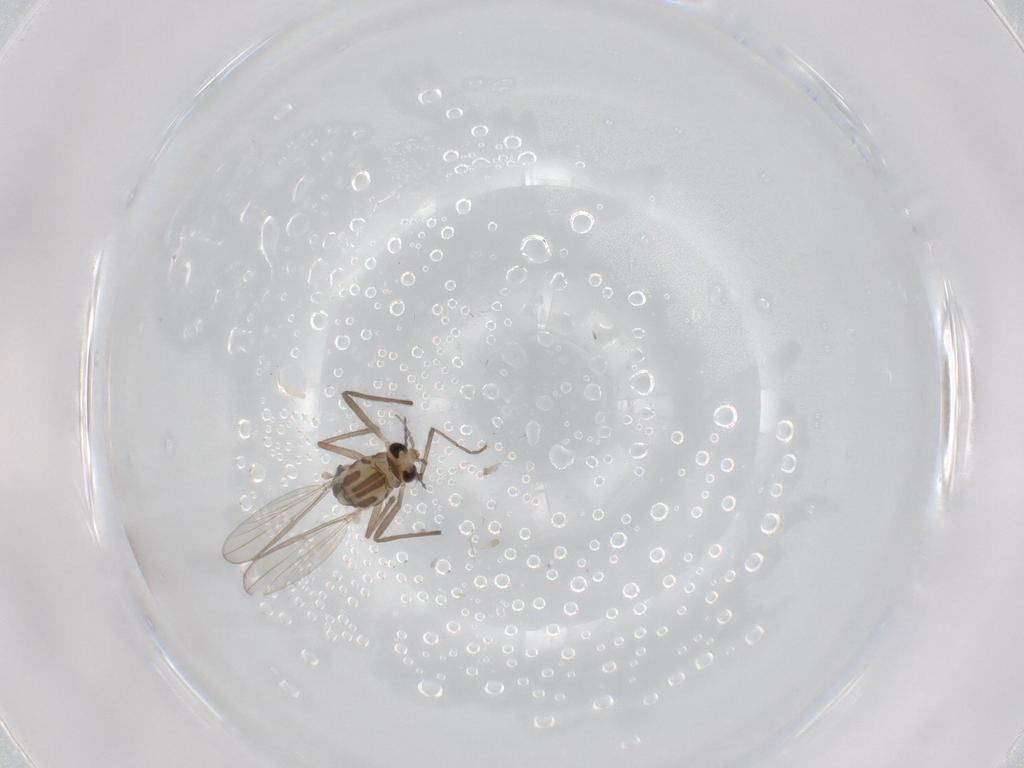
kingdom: Animalia
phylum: Arthropoda
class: Insecta
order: Diptera
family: Chironomidae
